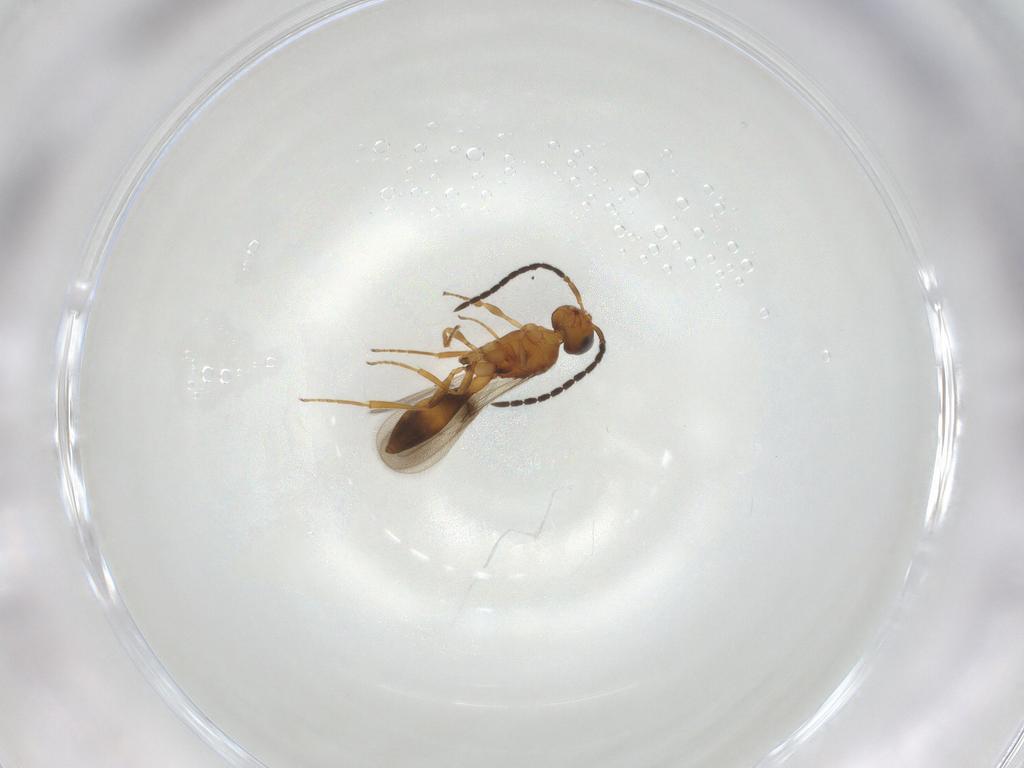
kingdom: Animalia
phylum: Arthropoda
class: Insecta
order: Hymenoptera
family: Scelionidae
